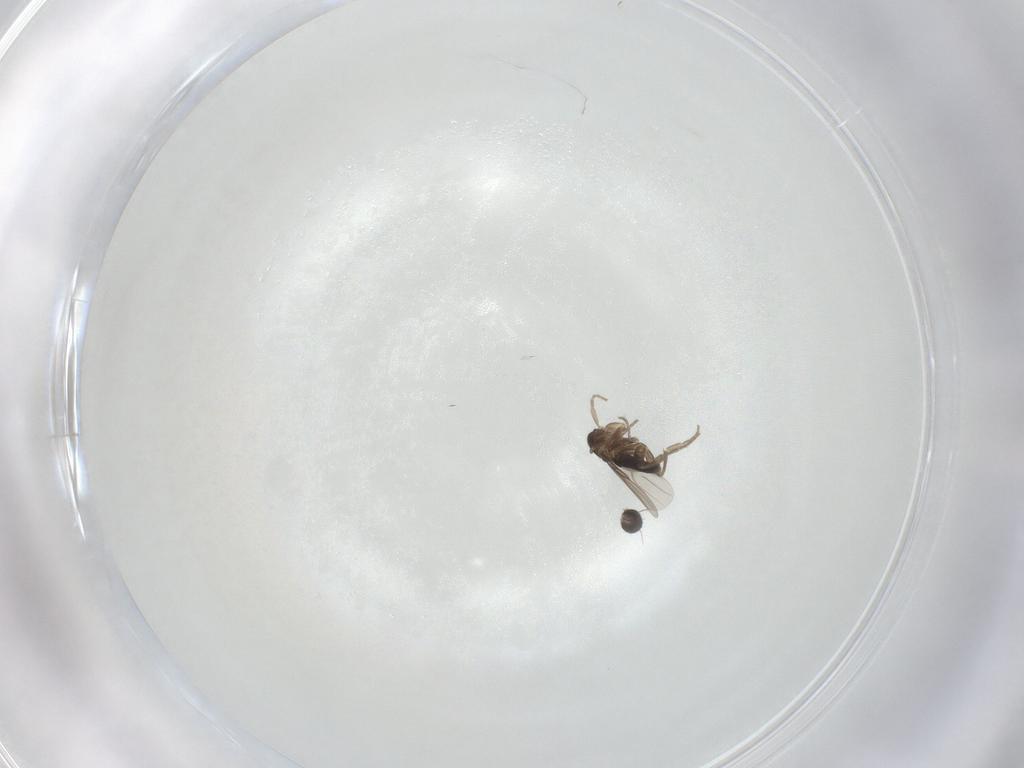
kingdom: Animalia
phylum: Arthropoda
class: Insecta
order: Diptera
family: Phoridae
